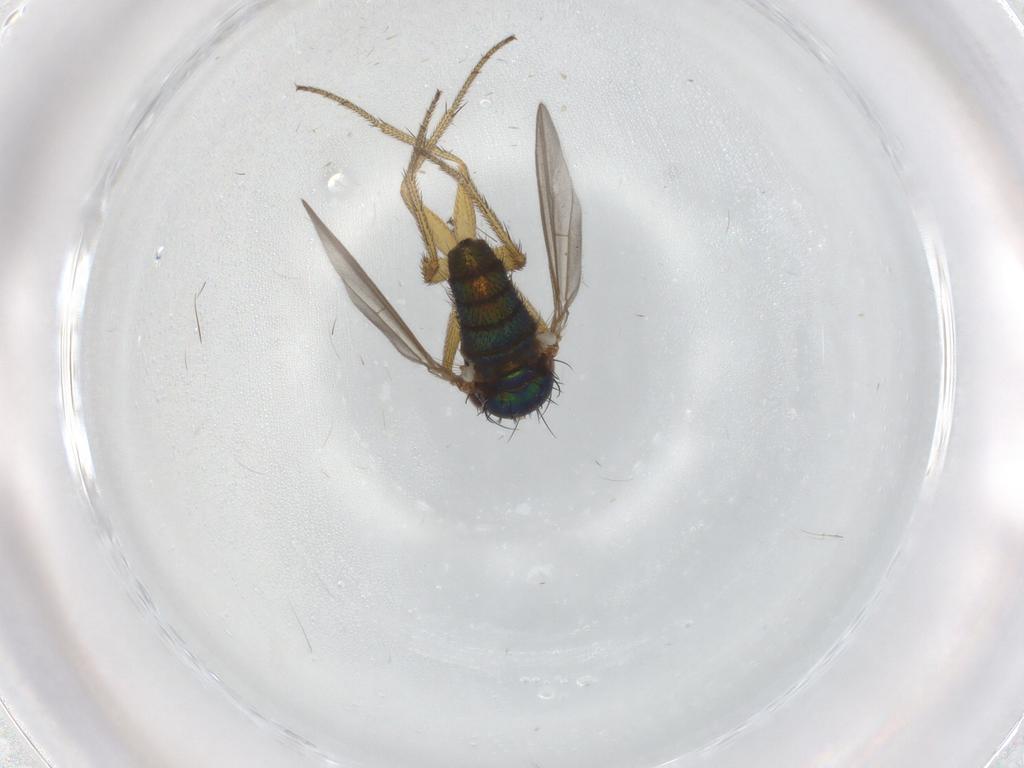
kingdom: Animalia
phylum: Arthropoda
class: Insecta
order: Diptera
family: Dolichopodidae
